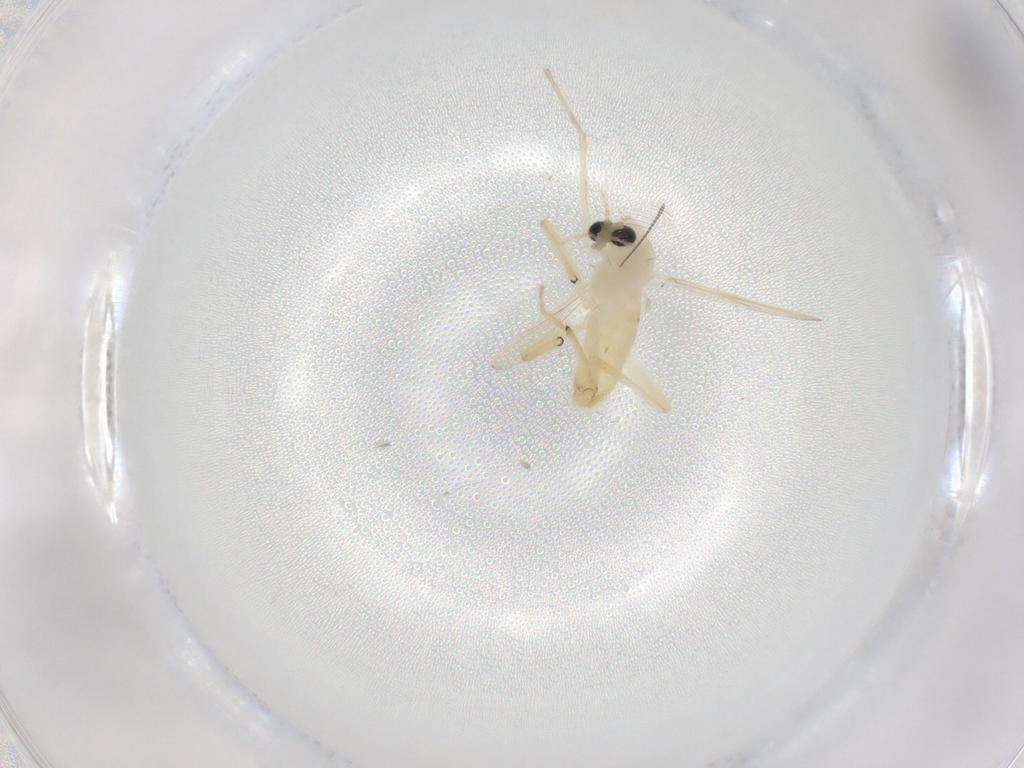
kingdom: Animalia
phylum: Arthropoda
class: Insecta
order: Diptera
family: Chironomidae
